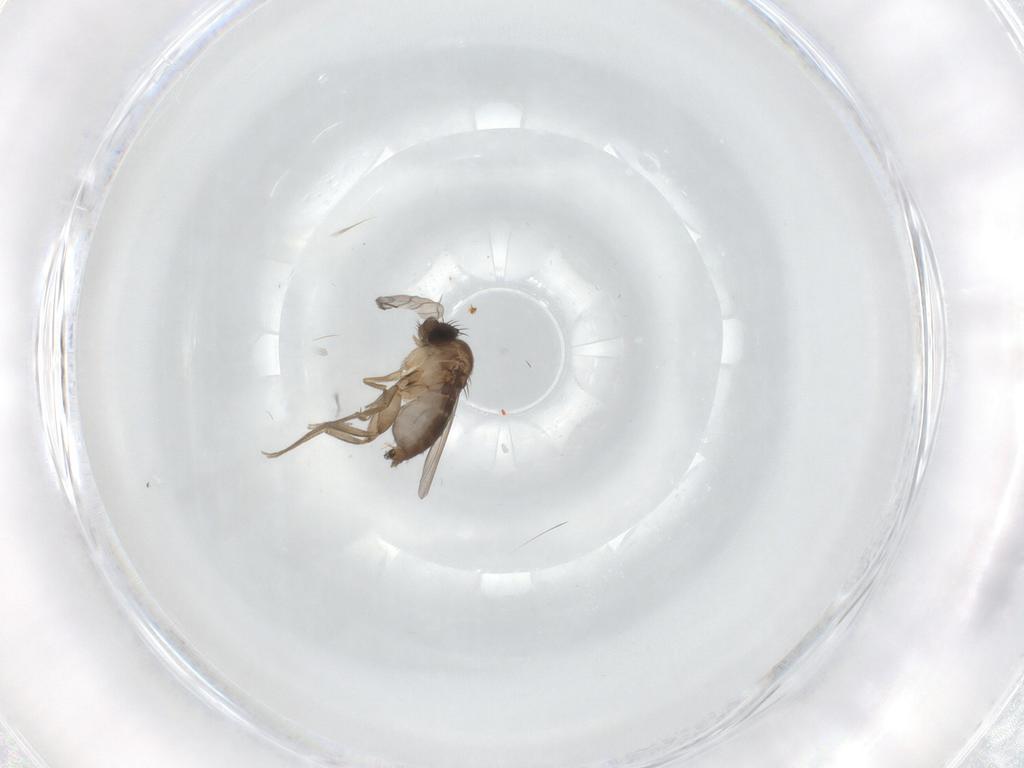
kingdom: Animalia
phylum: Arthropoda
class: Insecta
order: Diptera
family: Phoridae
